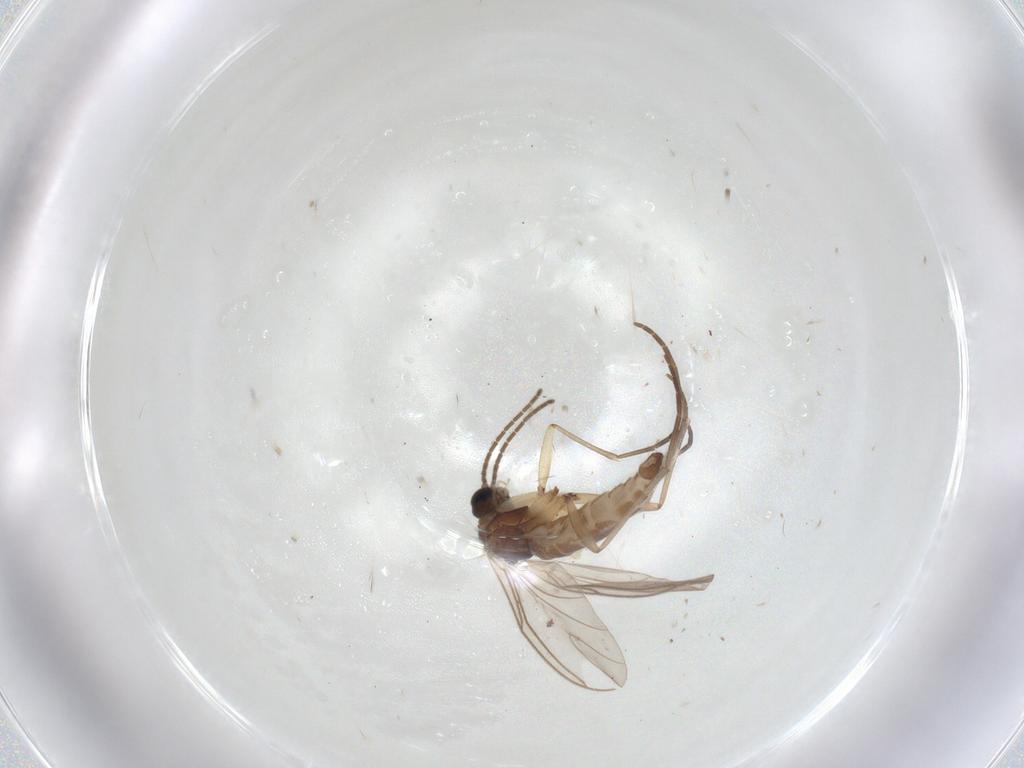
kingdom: Animalia
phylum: Arthropoda
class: Insecta
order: Diptera
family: Sciaridae
